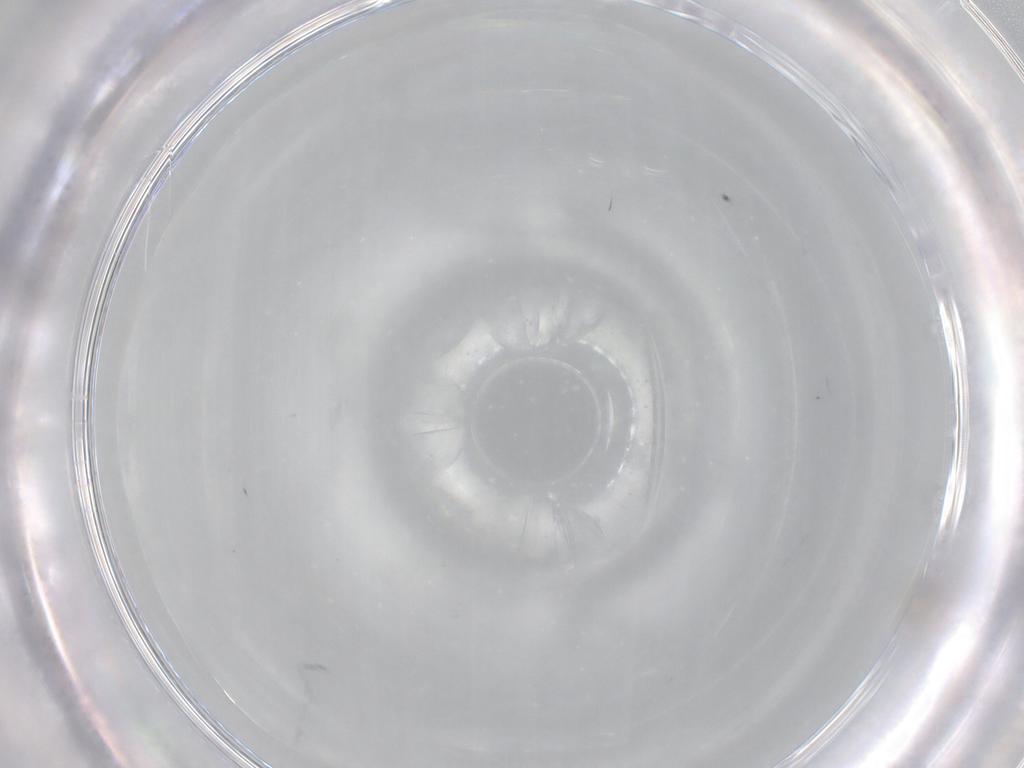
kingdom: Animalia
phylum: Arthropoda
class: Insecta
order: Diptera
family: Cecidomyiidae
